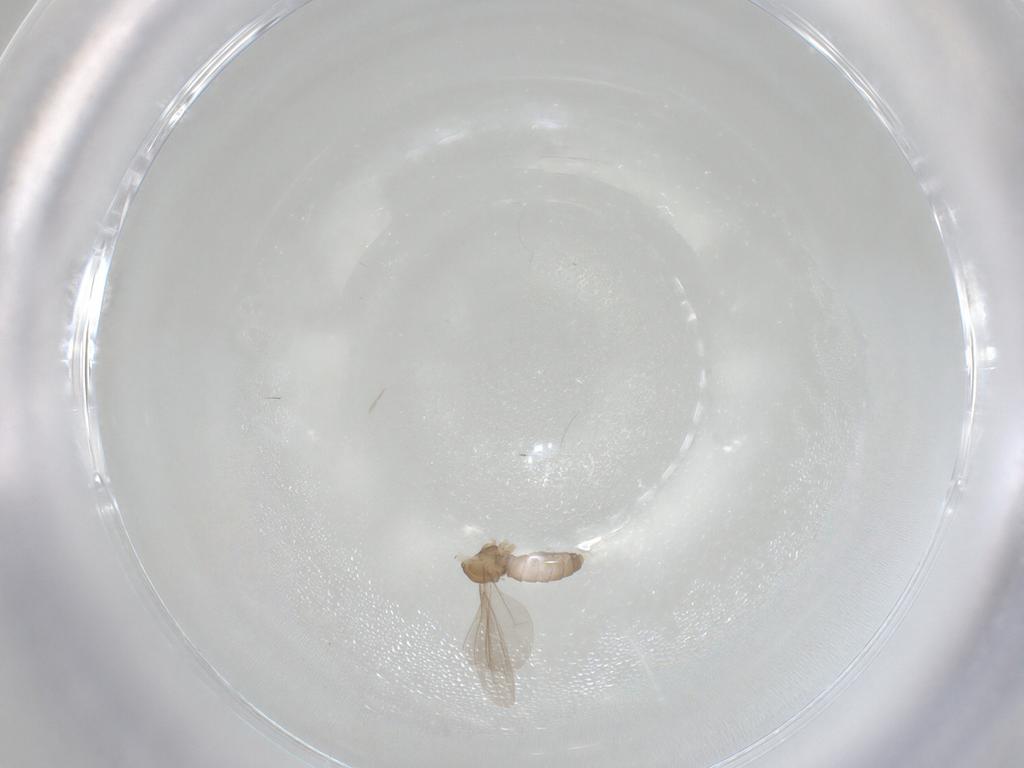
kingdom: Animalia
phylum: Arthropoda
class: Insecta
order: Diptera
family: Cecidomyiidae
